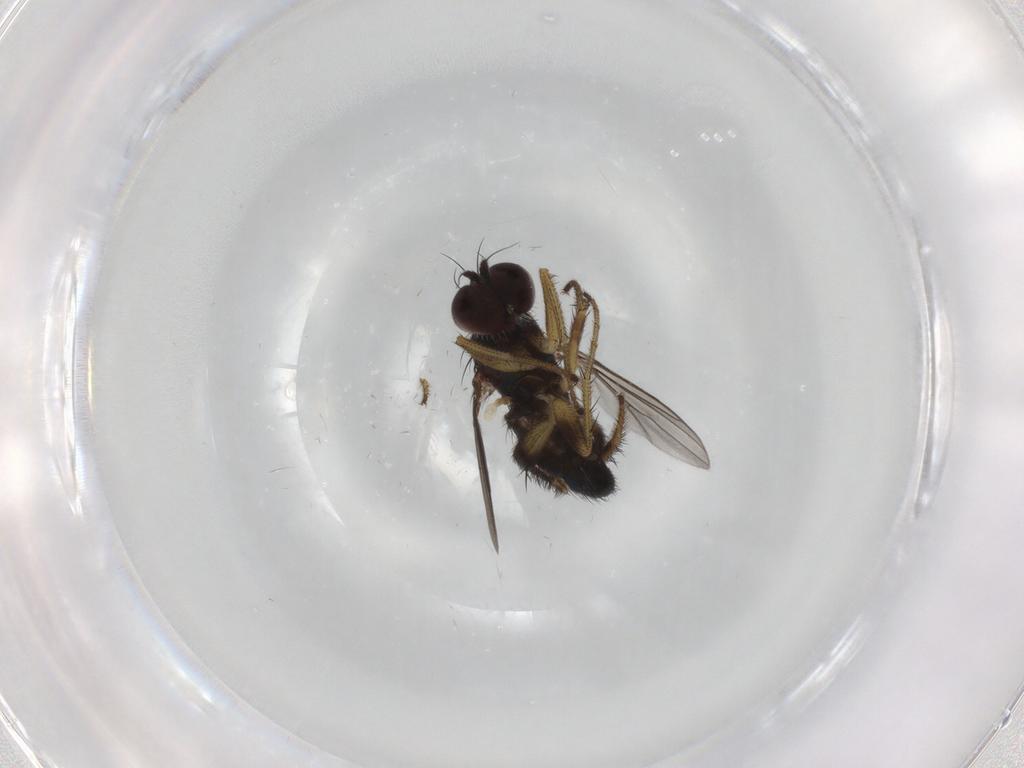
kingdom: Animalia
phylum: Arthropoda
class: Insecta
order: Diptera
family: Dolichopodidae
